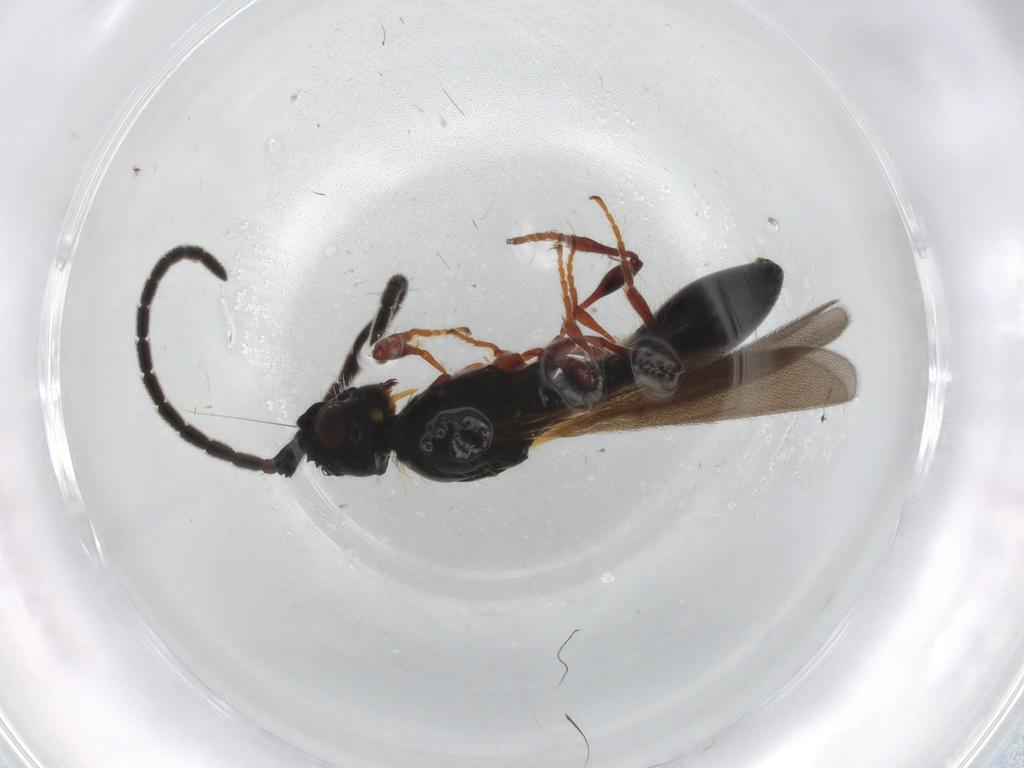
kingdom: Animalia
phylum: Arthropoda
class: Insecta
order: Hymenoptera
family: Diapriidae
